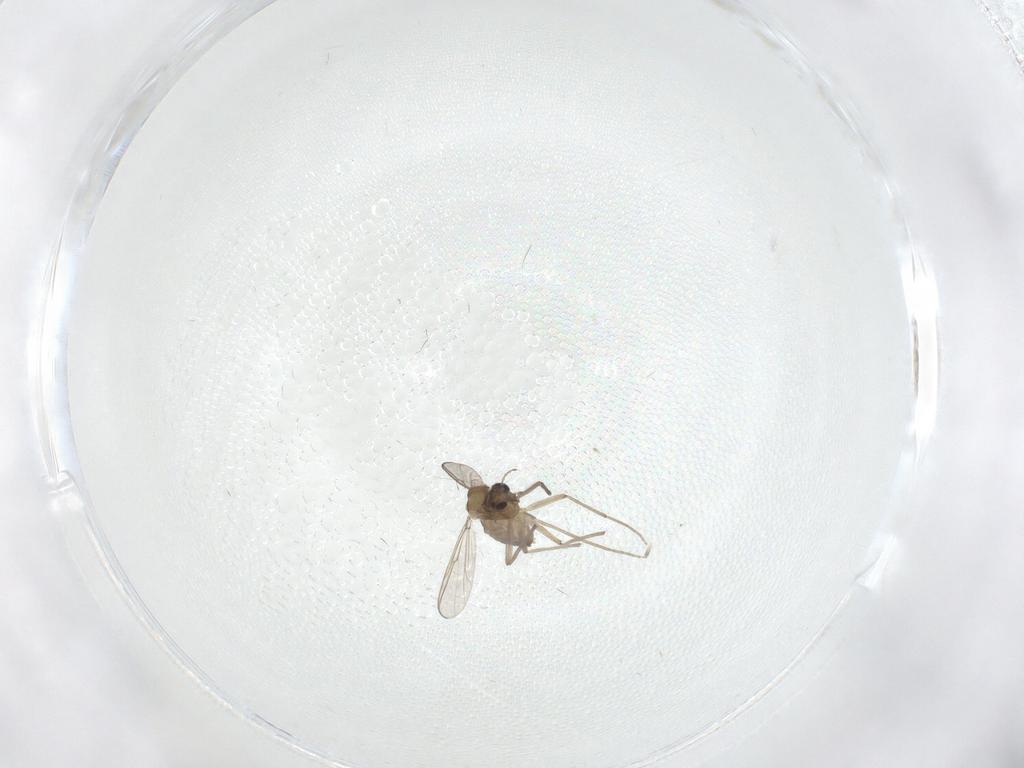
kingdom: Animalia
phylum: Arthropoda
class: Insecta
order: Diptera
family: Chironomidae
